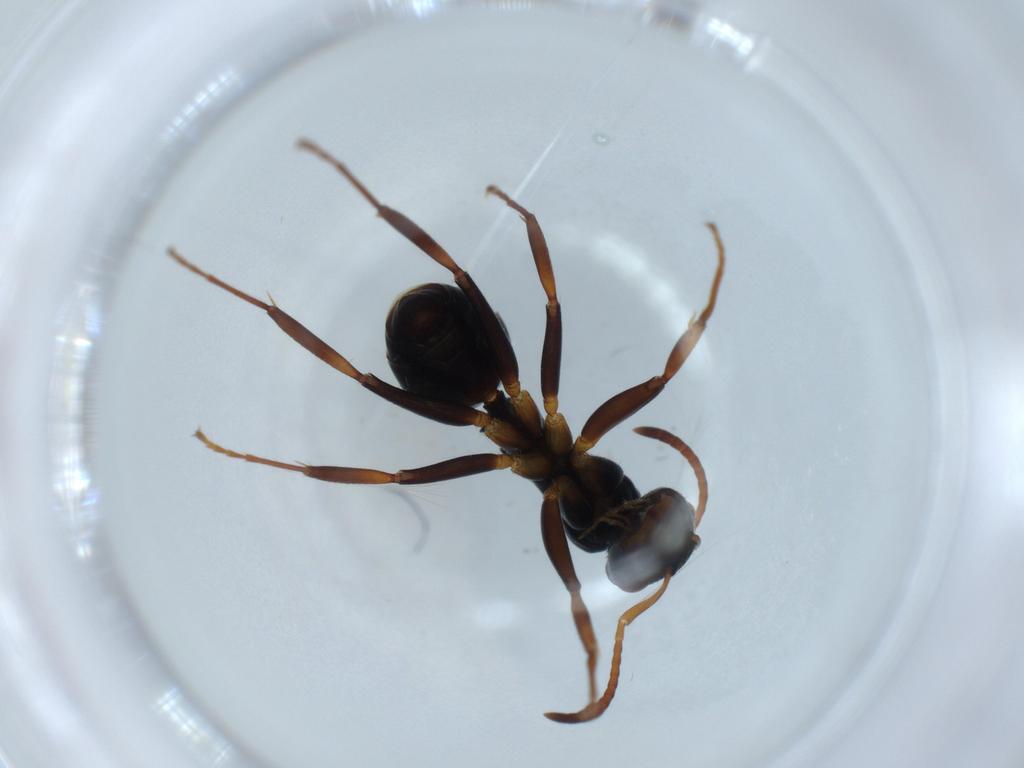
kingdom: Animalia
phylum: Arthropoda
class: Insecta
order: Hymenoptera
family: Formicidae
